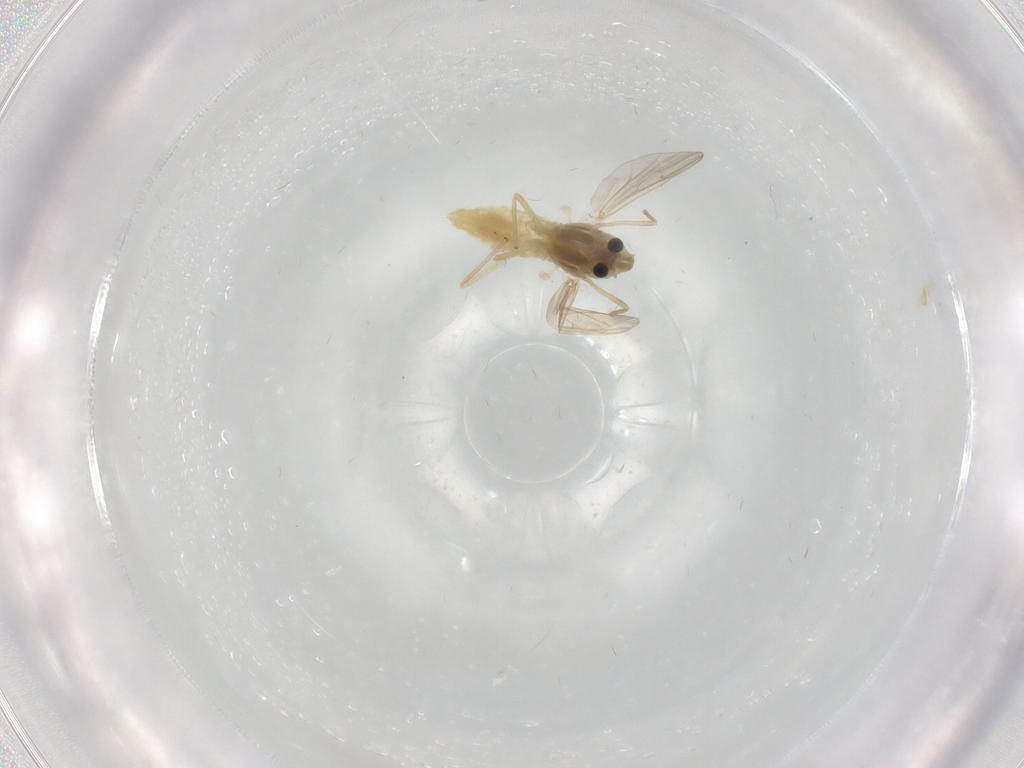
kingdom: Animalia
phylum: Arthropoda
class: Insecta
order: Diptera
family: Chironomidae
